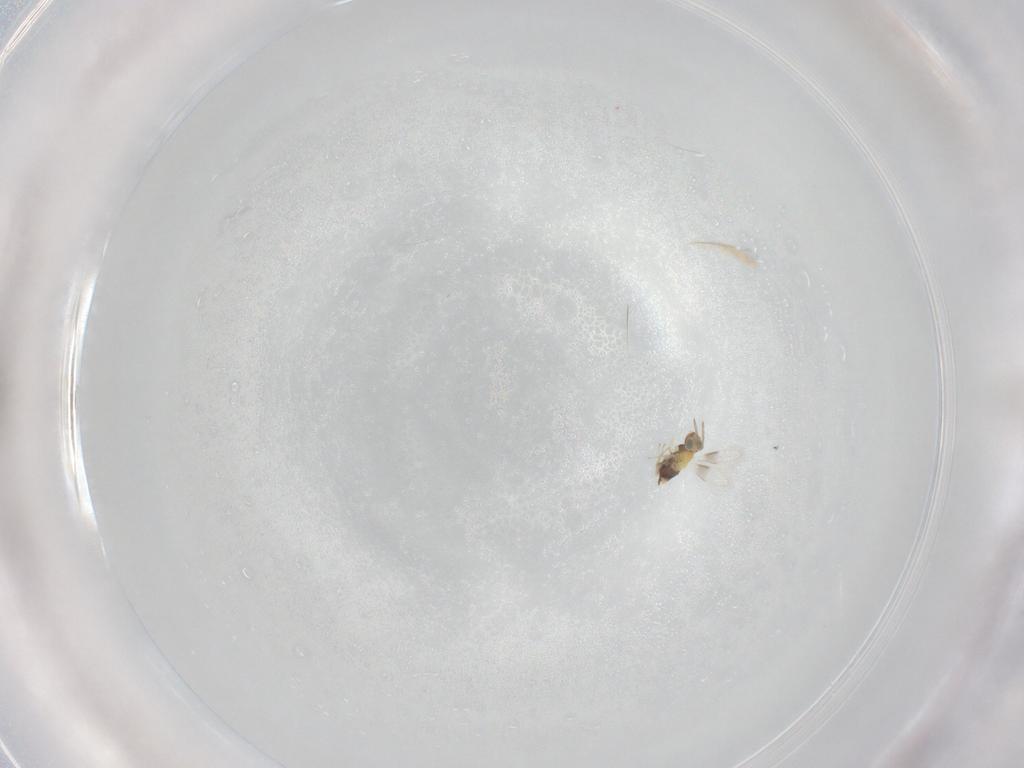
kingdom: Animalia
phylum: Arthropoda
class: Insecta
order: Hymenoptera
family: Aphelinidae
